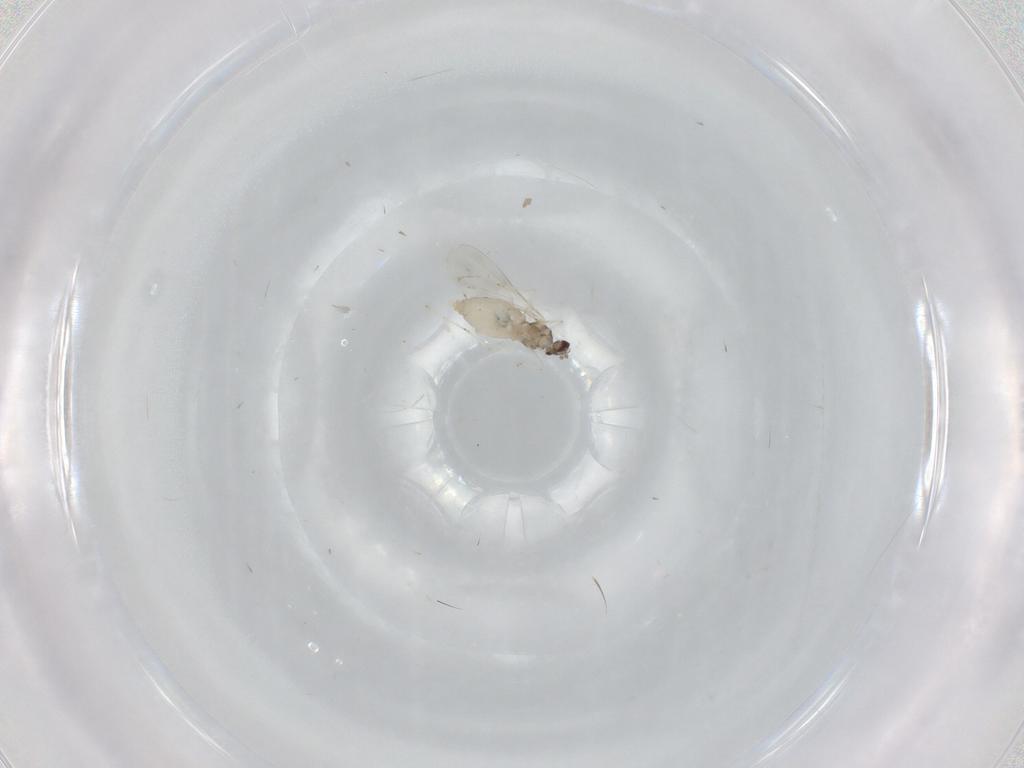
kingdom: Animalia
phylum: Arthropoda
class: Insecta
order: Diptera
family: Cecidomyiidae
